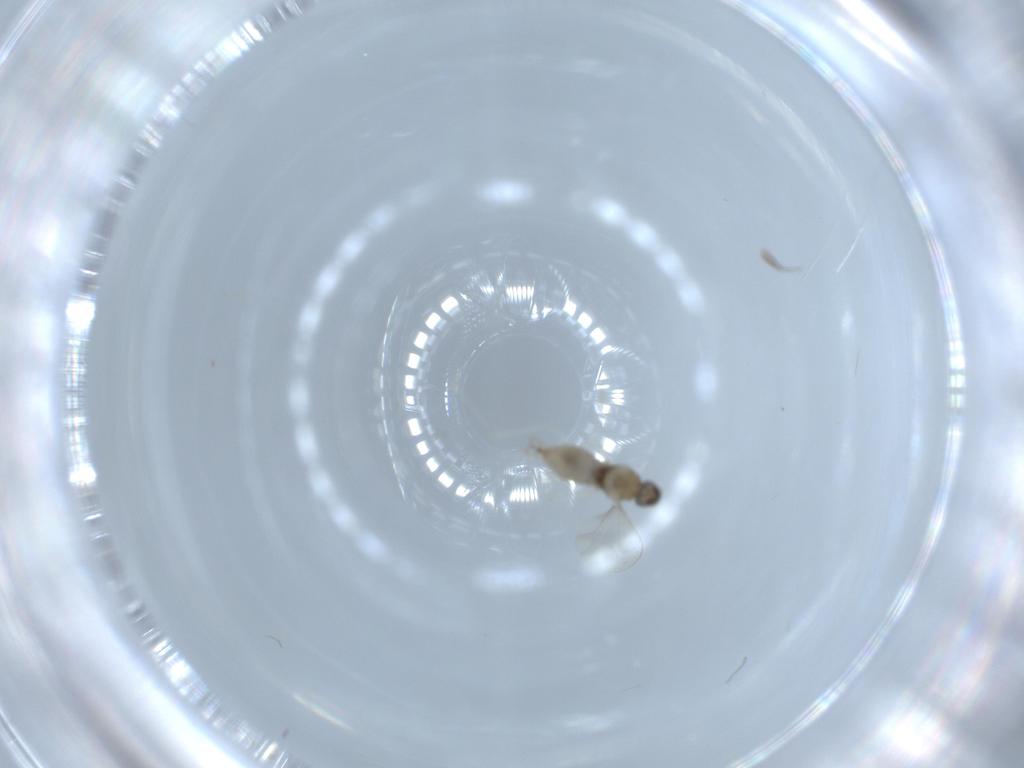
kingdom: Animalia
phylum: Arthropoda
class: Insecta
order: Diptera
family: Cecidomyiidae
